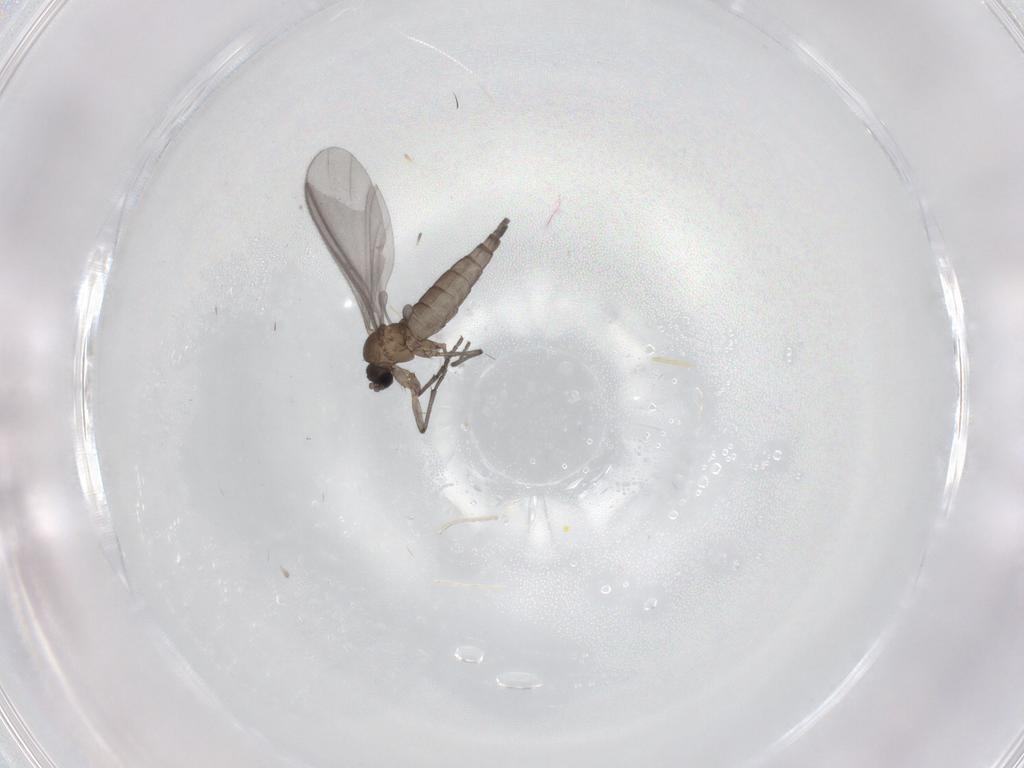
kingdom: Animalia
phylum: Arthropoda
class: Insecta
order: Diptera
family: Sciaridae
